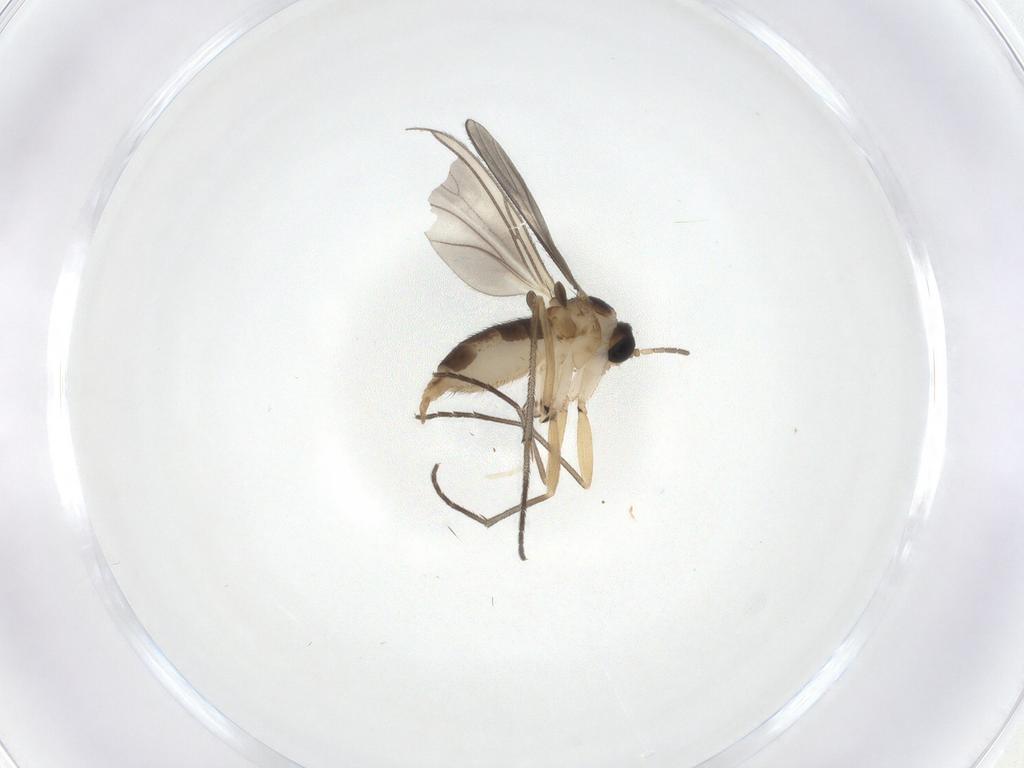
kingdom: Animalia
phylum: Arthropoda
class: Insecta
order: Diptera
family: Sciaridae
